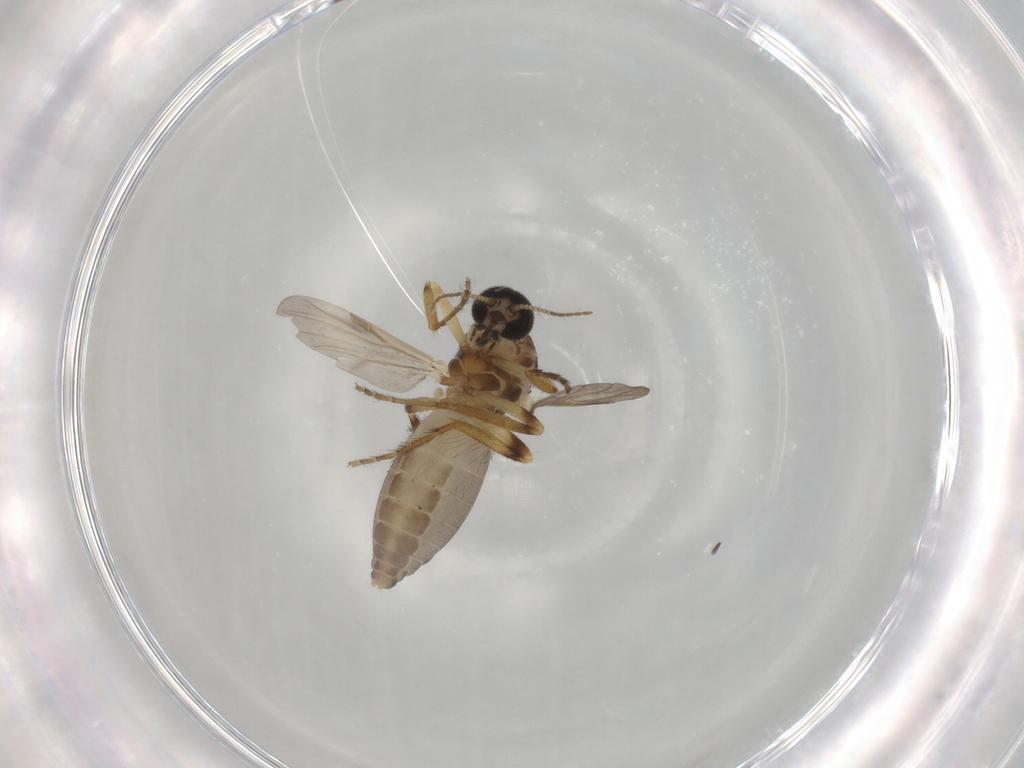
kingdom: Animalia
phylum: Arthropoda
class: Insecta
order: Diptera
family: Ceratopogonidae
